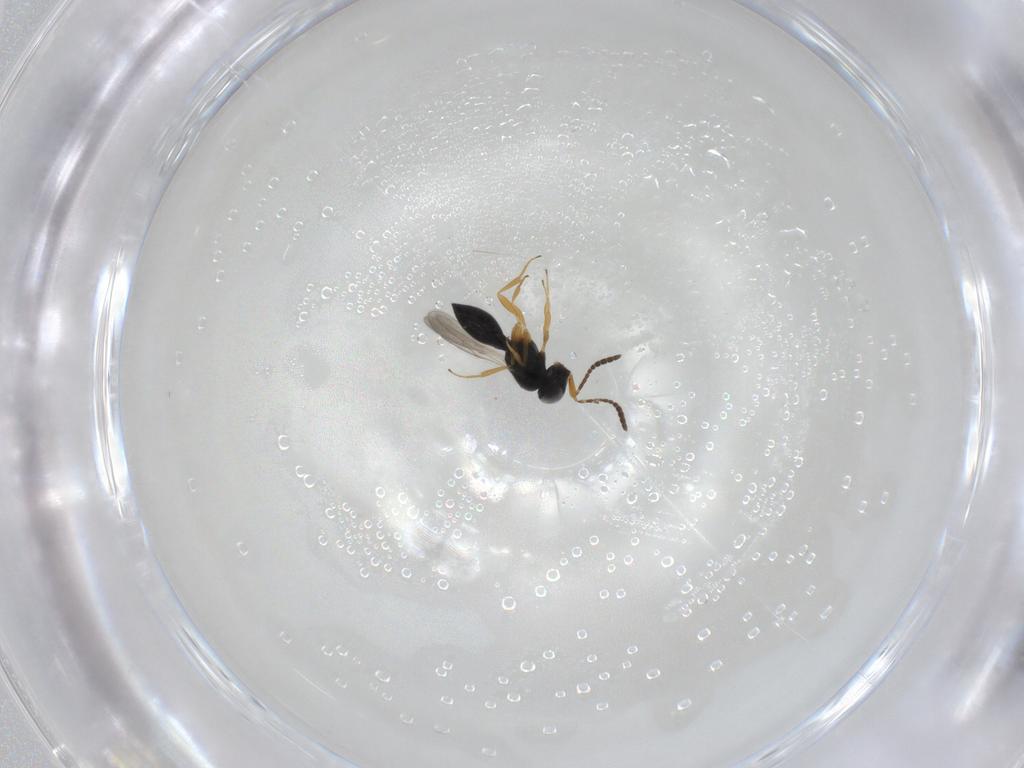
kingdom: Animalia
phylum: Arthropoda
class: Insecta
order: Hymenoptera
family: Scelionidae
